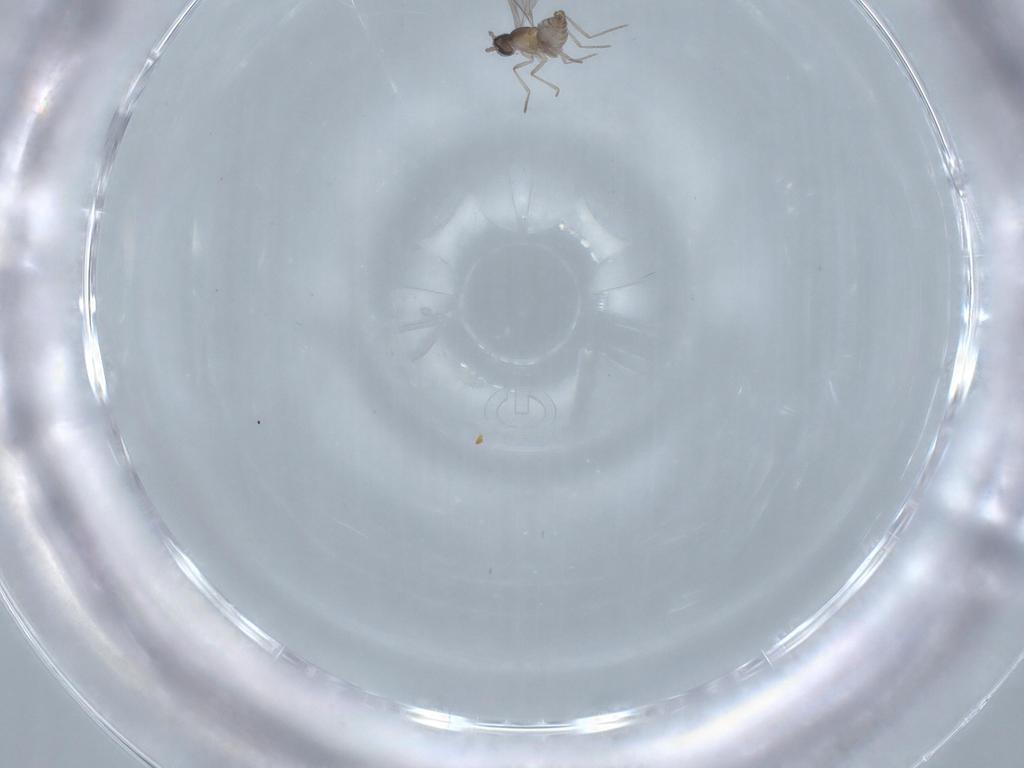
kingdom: Animalia
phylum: Arthropoda
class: Insecta
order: Diptera
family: Cecidomyiidae
